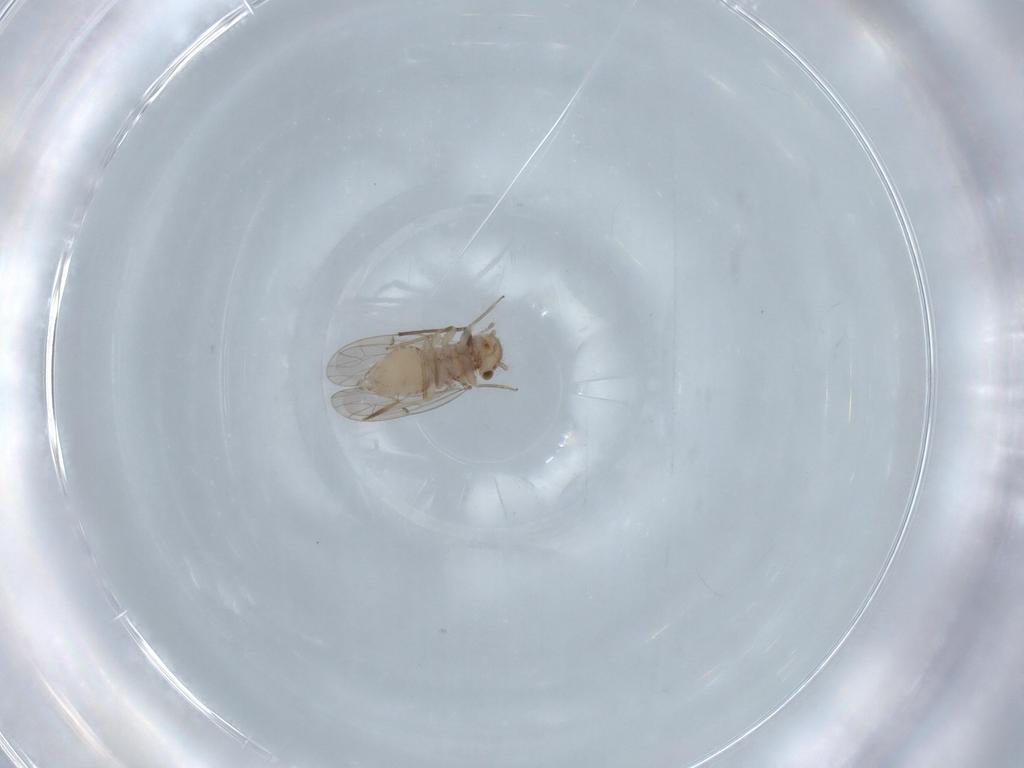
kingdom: Animalia
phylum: Arthropoda
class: Insecta
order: Psocodea
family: Ectopsocidae
